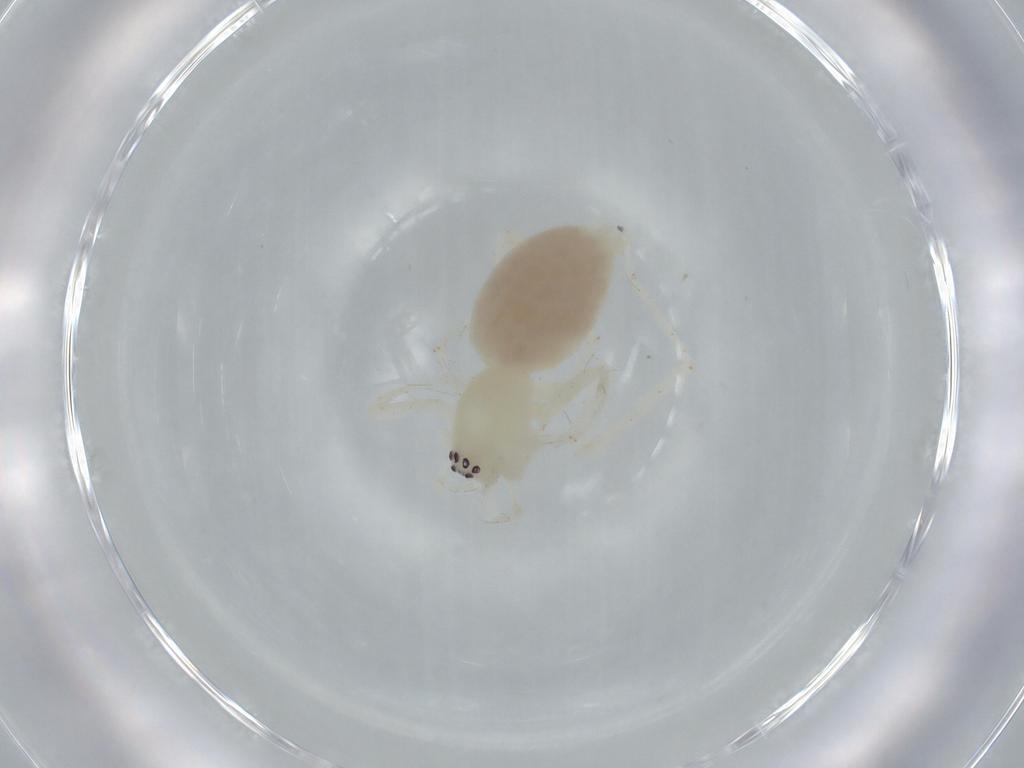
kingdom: Animalia
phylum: Arthropoda
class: Arachnida
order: Araneae
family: Anyphaenidae
